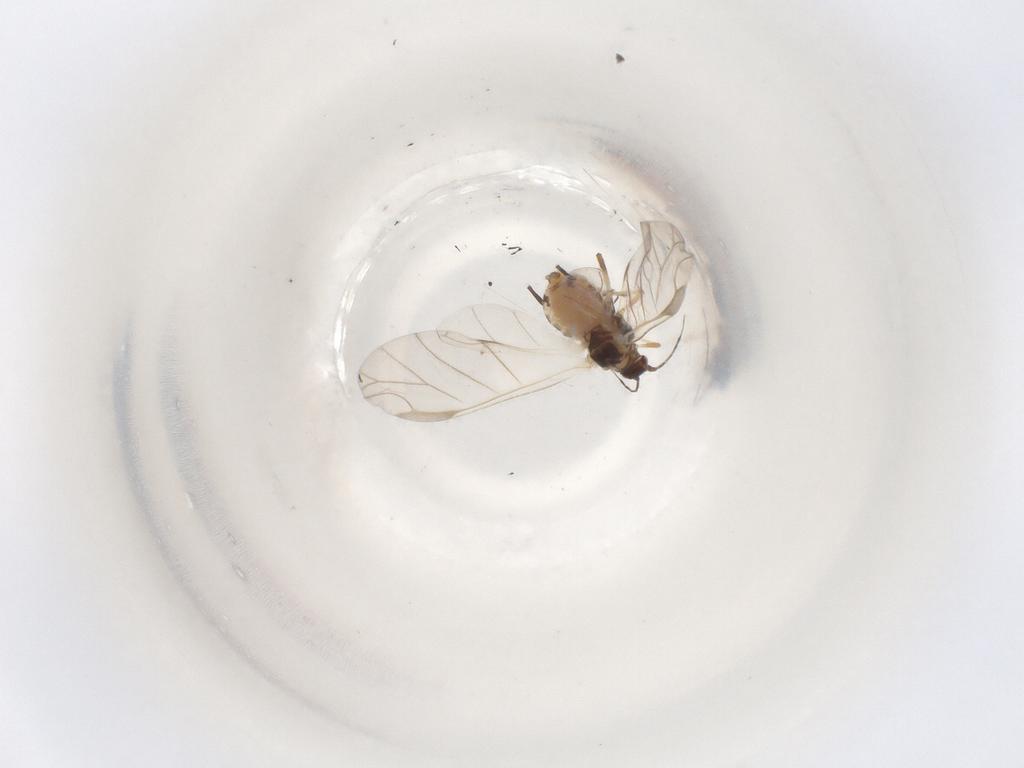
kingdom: Animalia
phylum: Arthropoda
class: Insecta
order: Hemiptera
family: Aphididae
